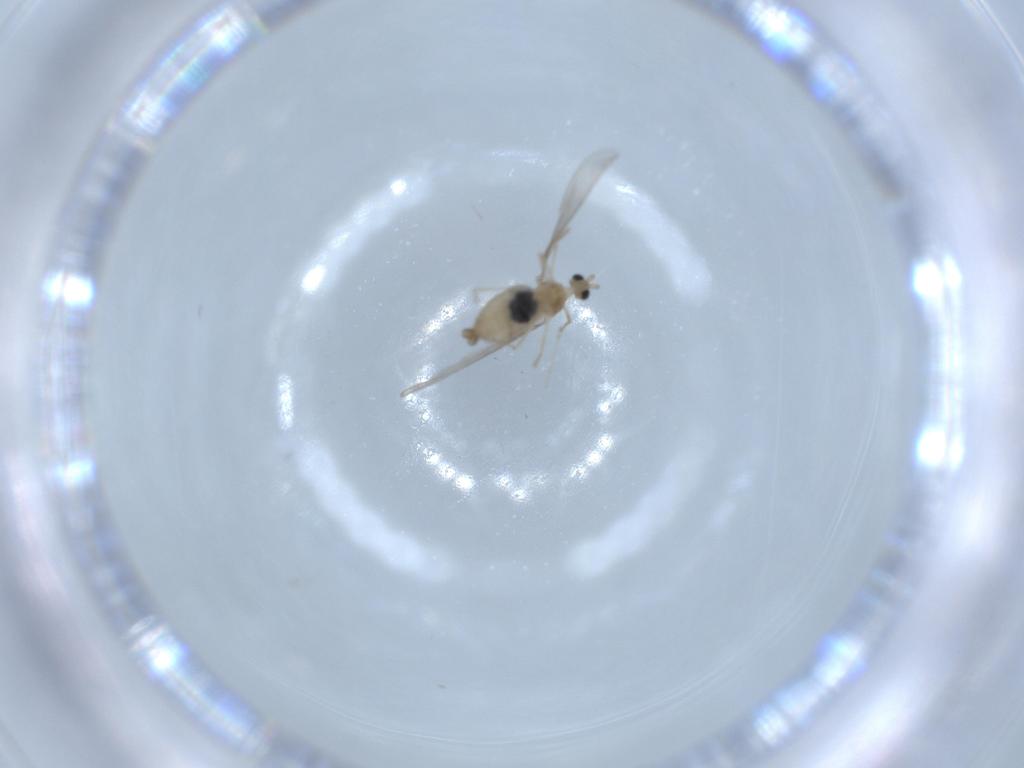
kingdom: Animalia
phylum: Arthropoda
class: Insecta
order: Diptera
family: Cecidomyiidae
